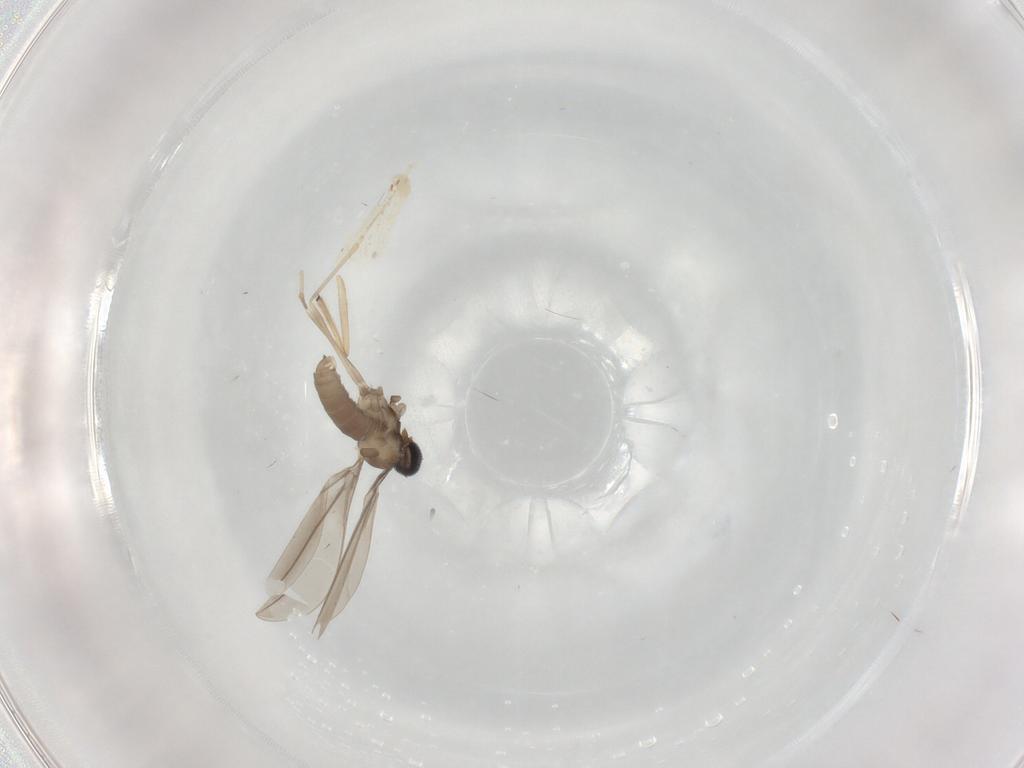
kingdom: Animalia
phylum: Arthropoda
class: Insecta
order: Diptera
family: Cecidomyiidae
